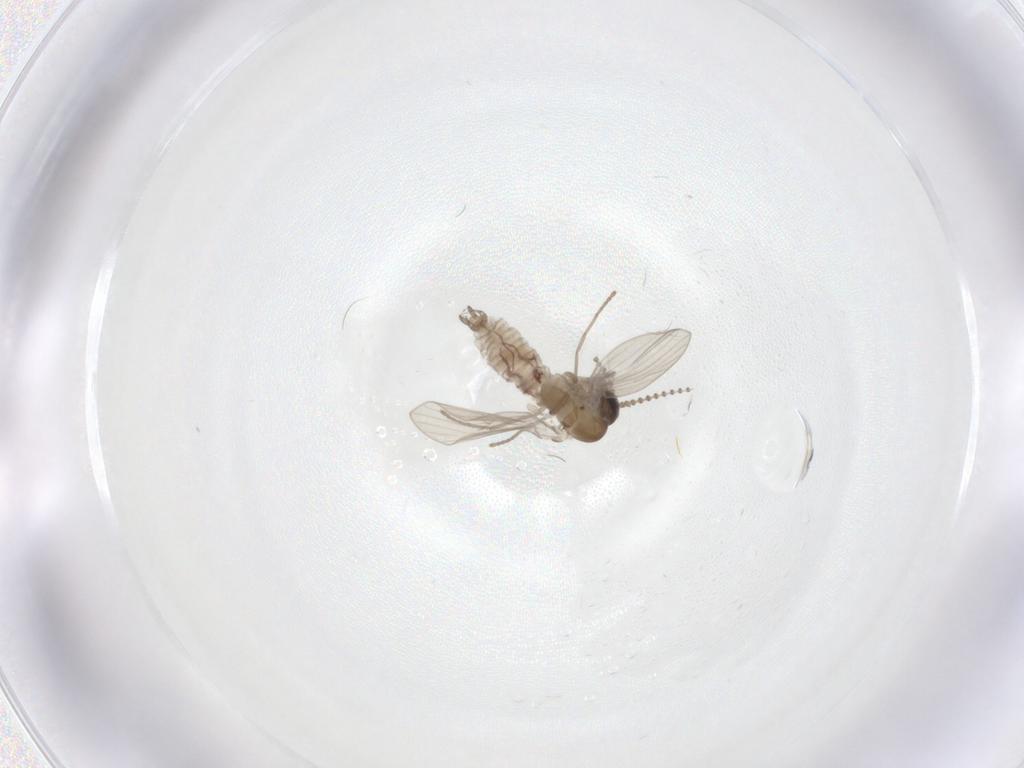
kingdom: Animalia
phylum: Arthropoda
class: Insecta
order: Diptera
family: Psychodidae
